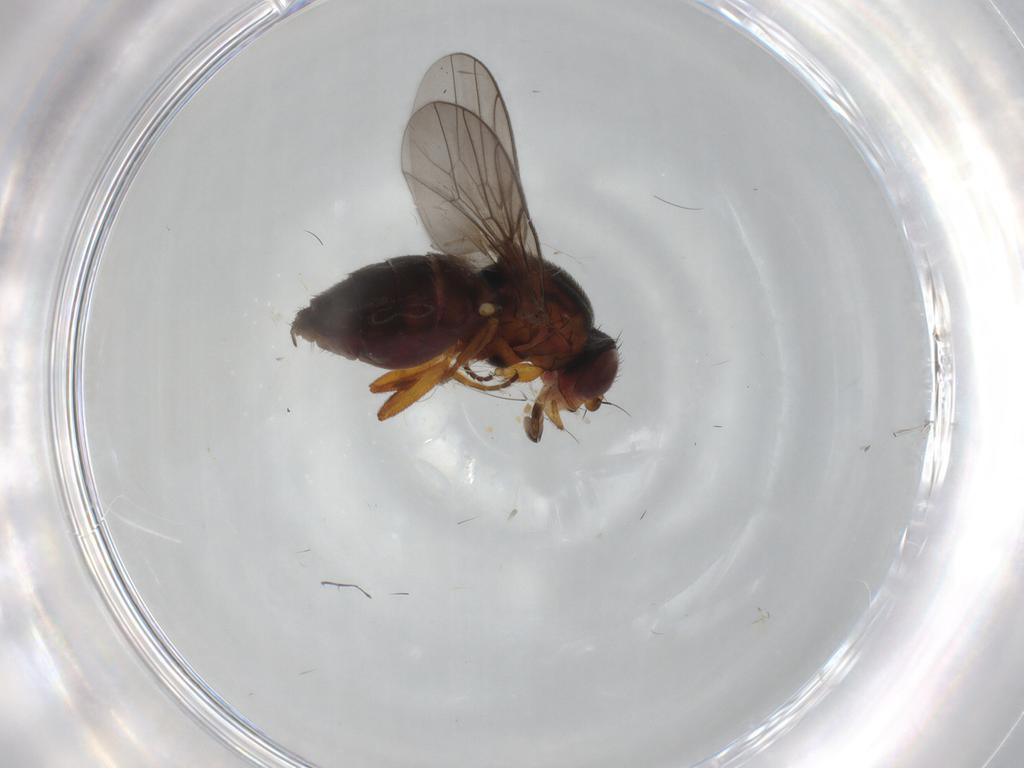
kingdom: Animalia
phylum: Arthropoda
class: Insecta
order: Diptera
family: Chloropidae
